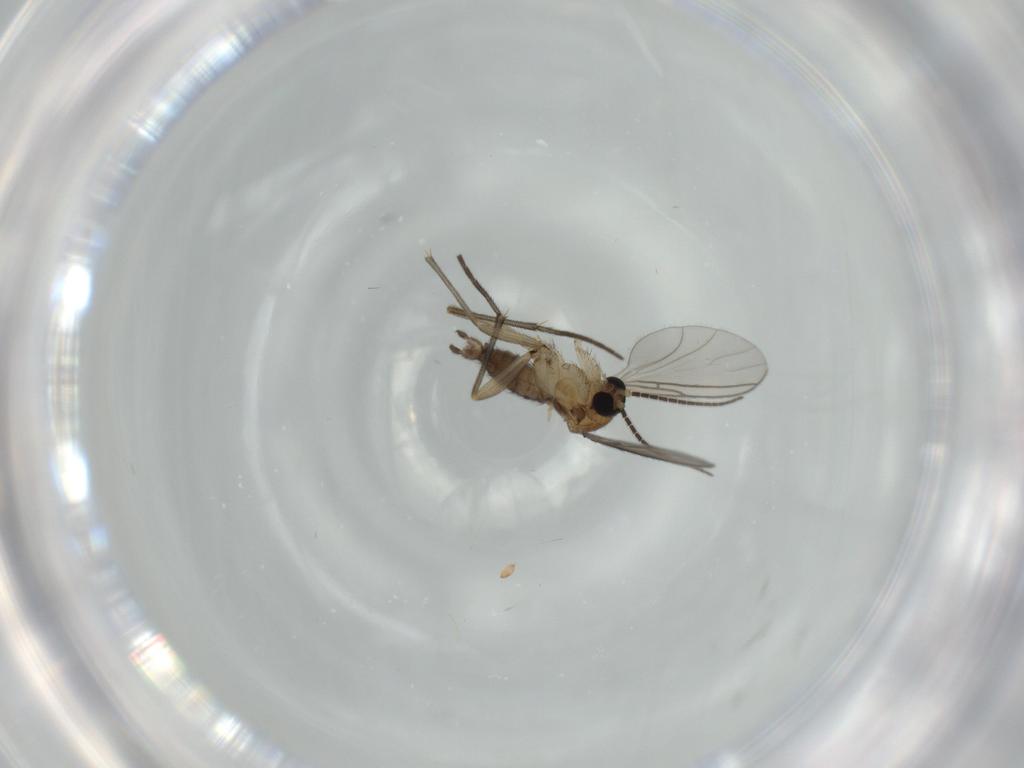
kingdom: Animalia
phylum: Arthropoda
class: Insecta
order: Diptera
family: Sciaridae
